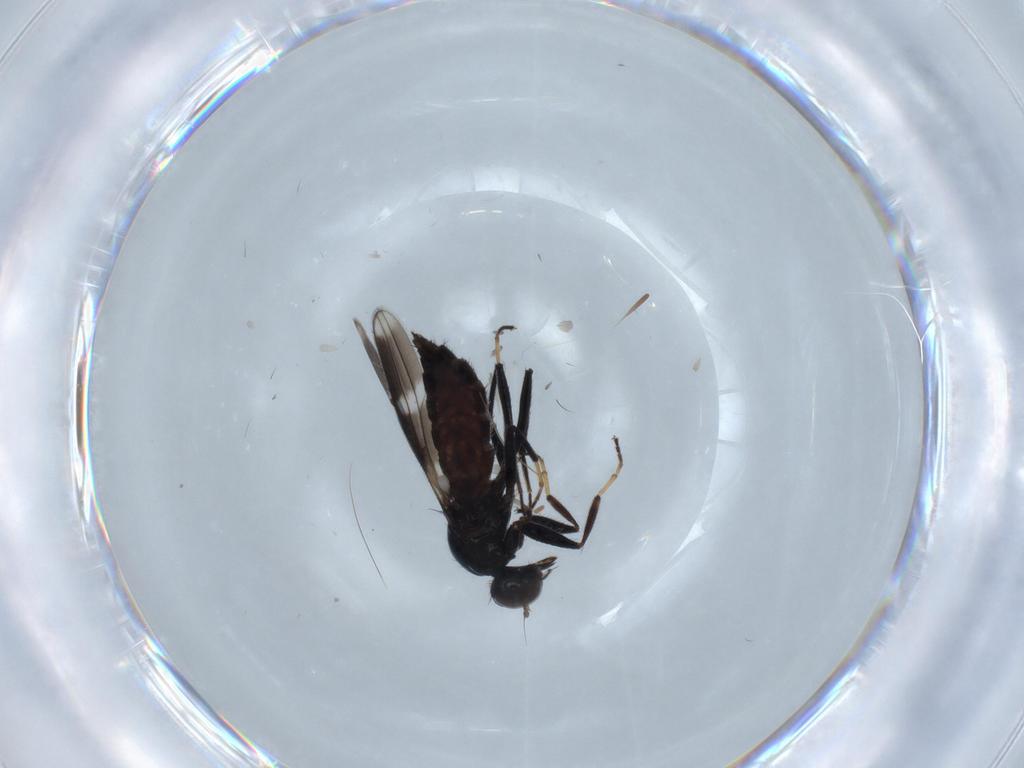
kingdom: Animalia
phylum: Arthropoda
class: Insecta
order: Diptera
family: Hybotidae
